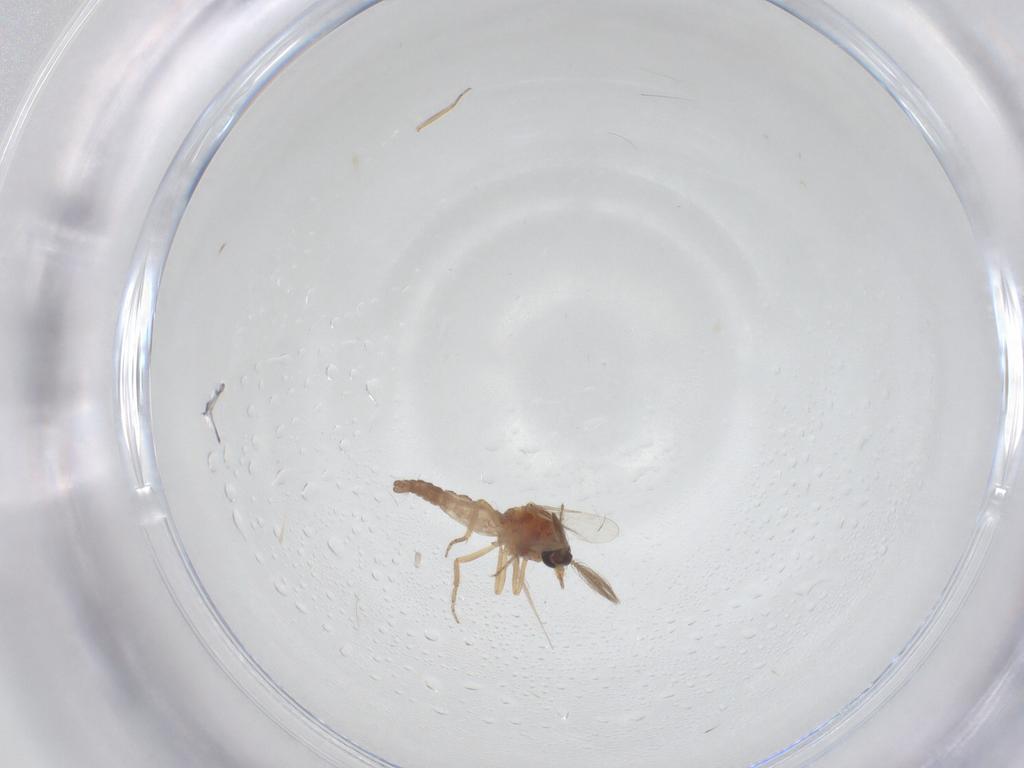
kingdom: Animalia
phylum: Arthropoda
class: Insecta
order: Diptera
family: Ceratopogonidae
